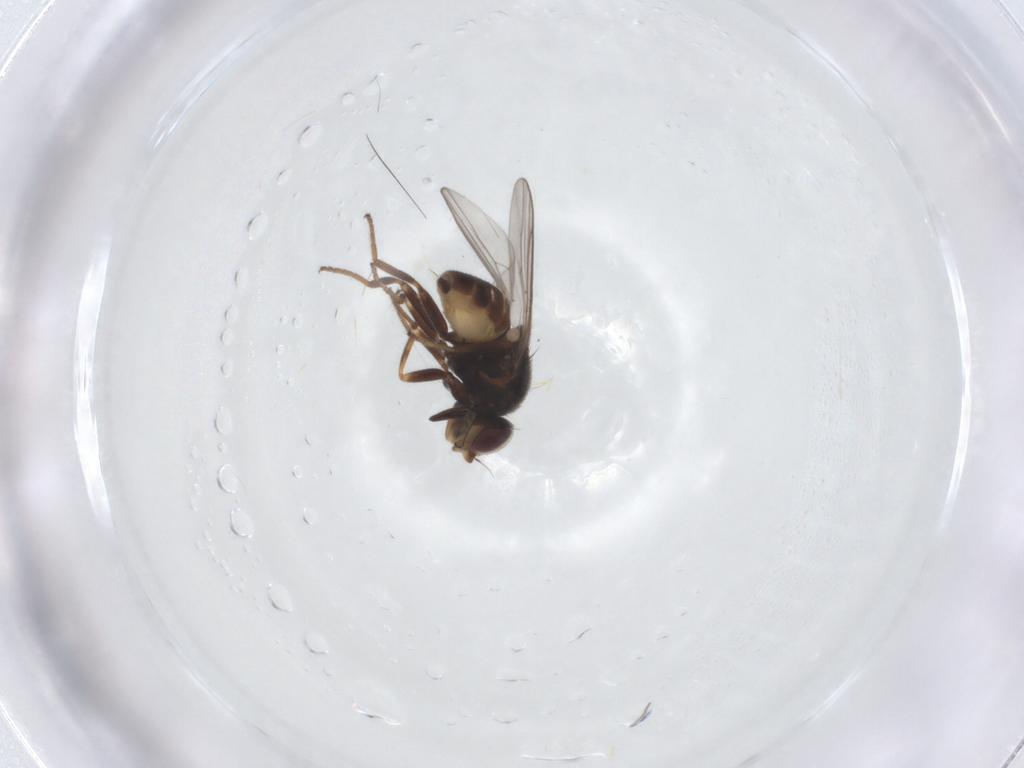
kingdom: Animalia
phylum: Arthropoda
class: Insecta
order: Diptera
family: Chloropidae
